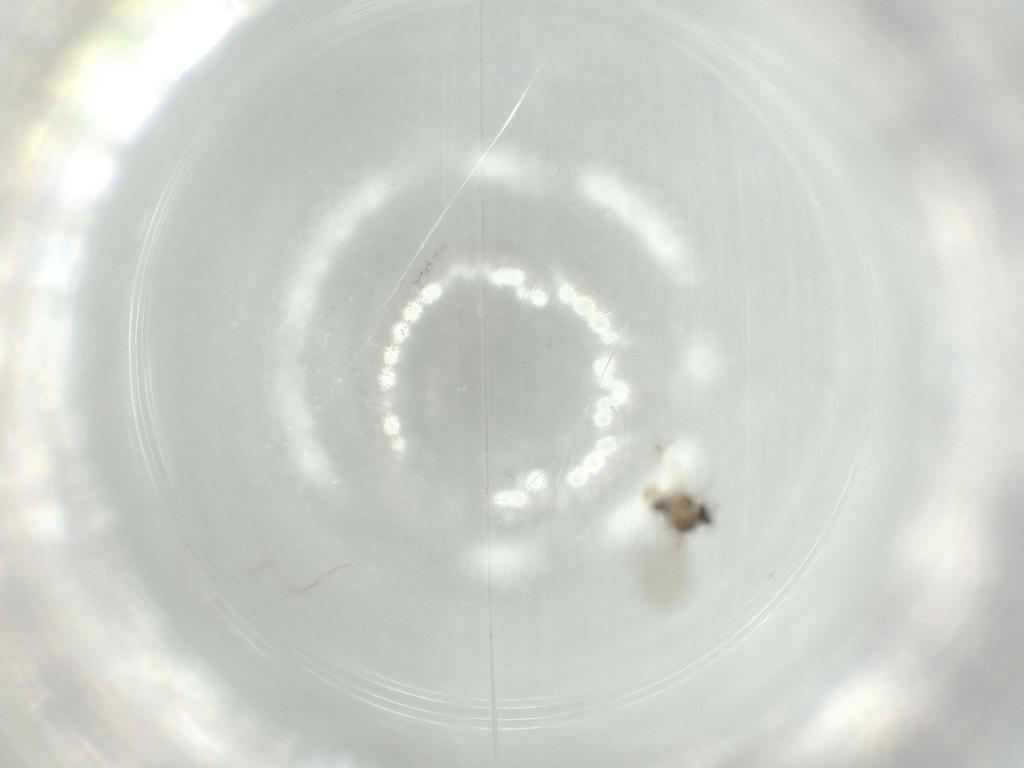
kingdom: Animalia
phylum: Arthropoda
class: Insecta
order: Diptera
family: Cecidomyiidae
